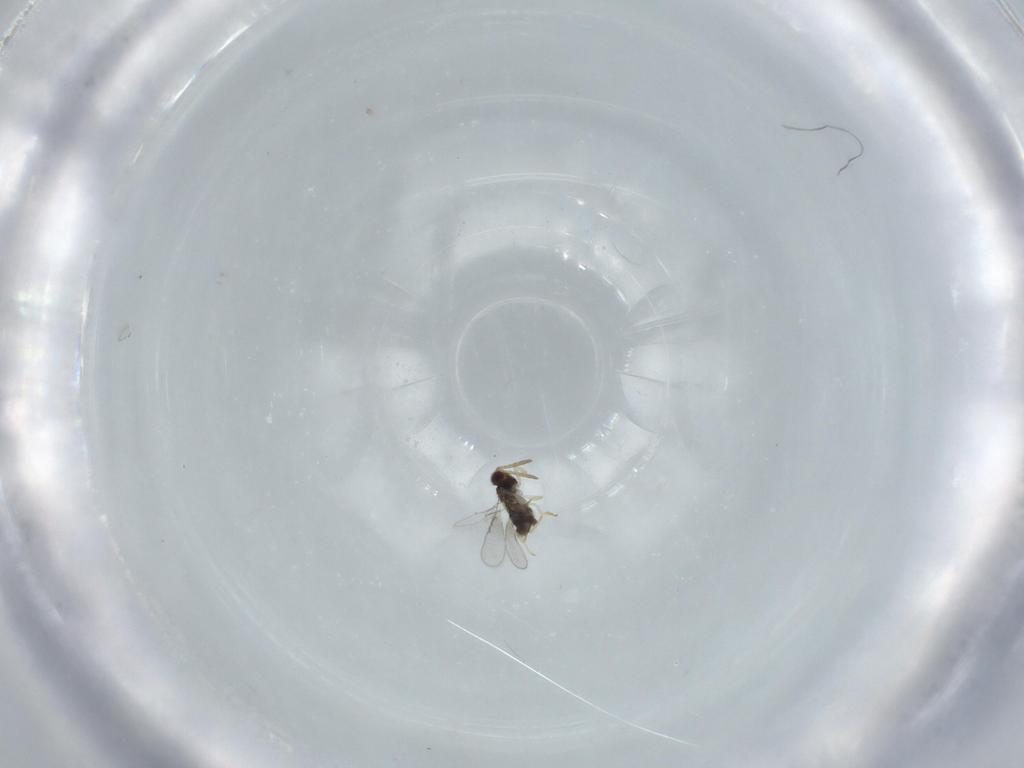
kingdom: Animalia
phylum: Arthropoda
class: Insecta
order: Hymenoptera
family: Aphelinidae
